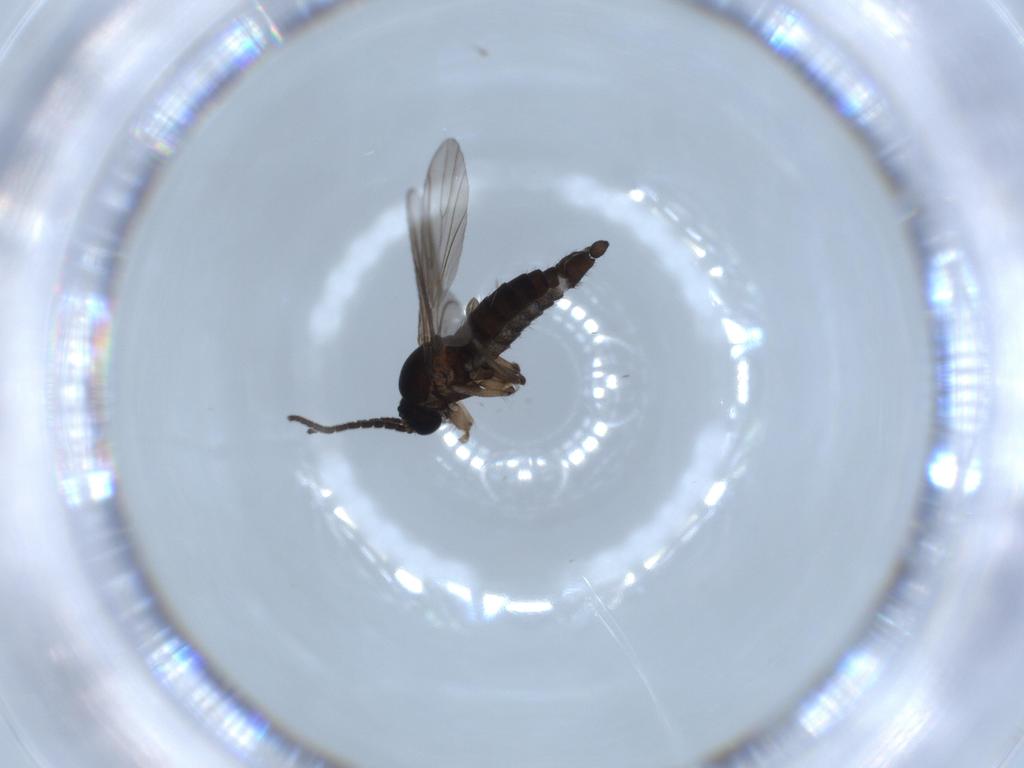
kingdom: Animalia
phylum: Arthropoda
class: Insecta
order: Diptera
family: Sciaridae
